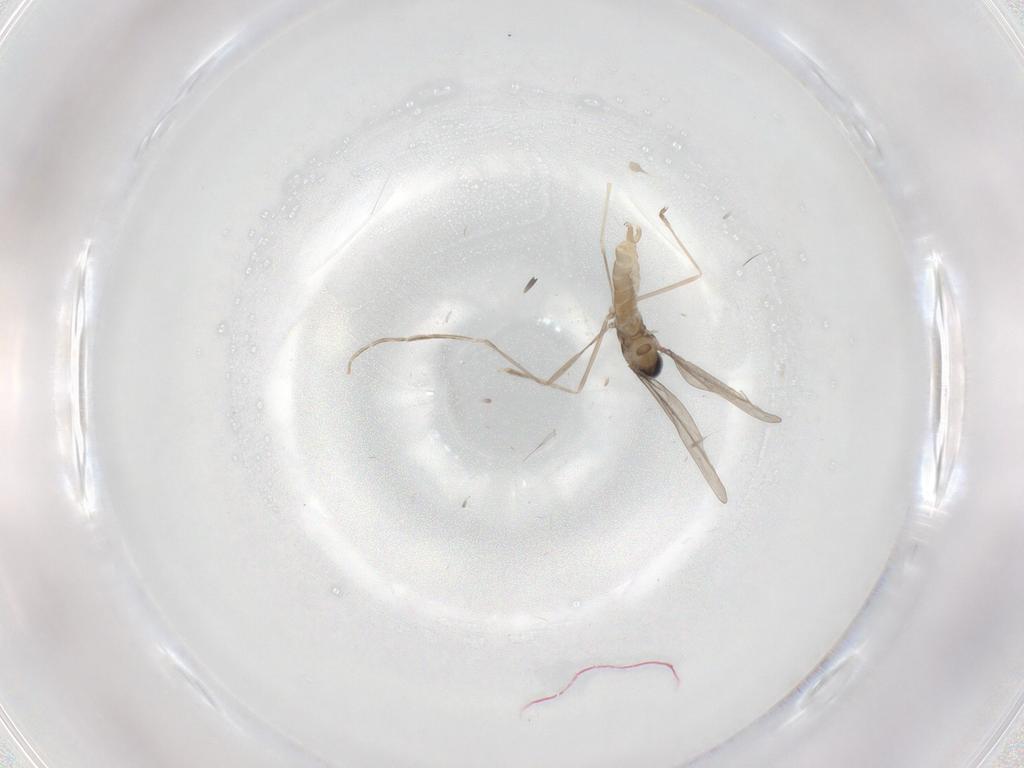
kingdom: Animalia
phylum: Arthropoda
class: Insecta
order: Diptera
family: Cecidomyiidae
